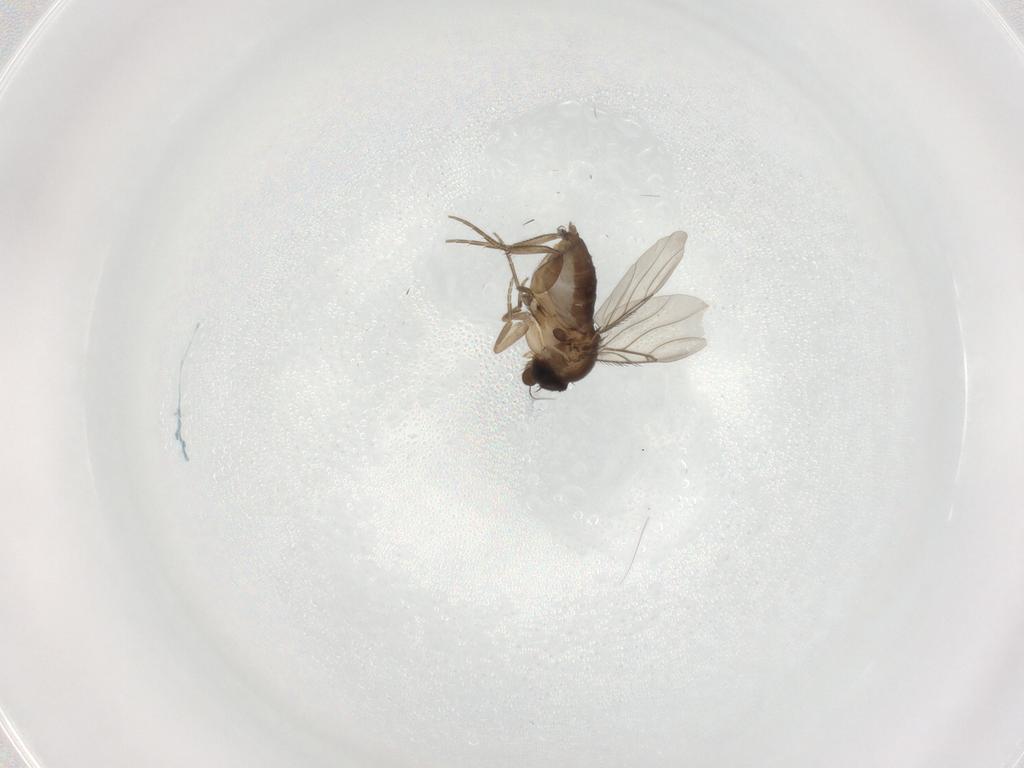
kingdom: Animalia
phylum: Arthropoda
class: Insecta
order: Diptera
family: Phoridae
